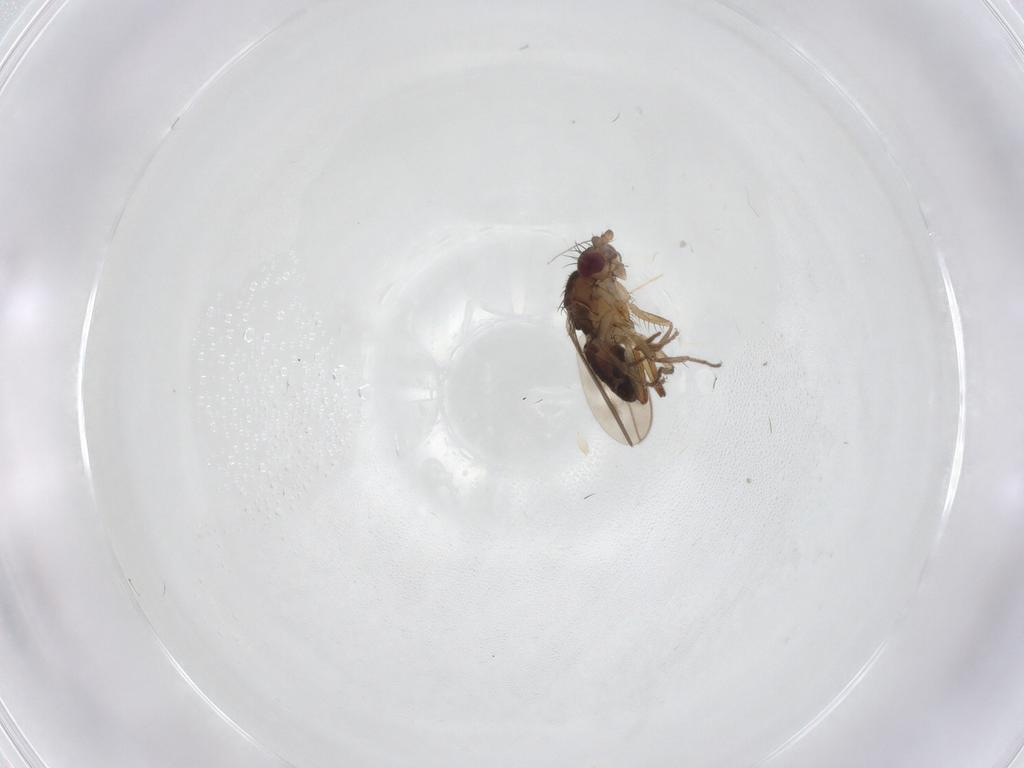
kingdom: Animalia
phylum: Arthropoda
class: Insecta
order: Diptera
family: Sphaeroceridae
